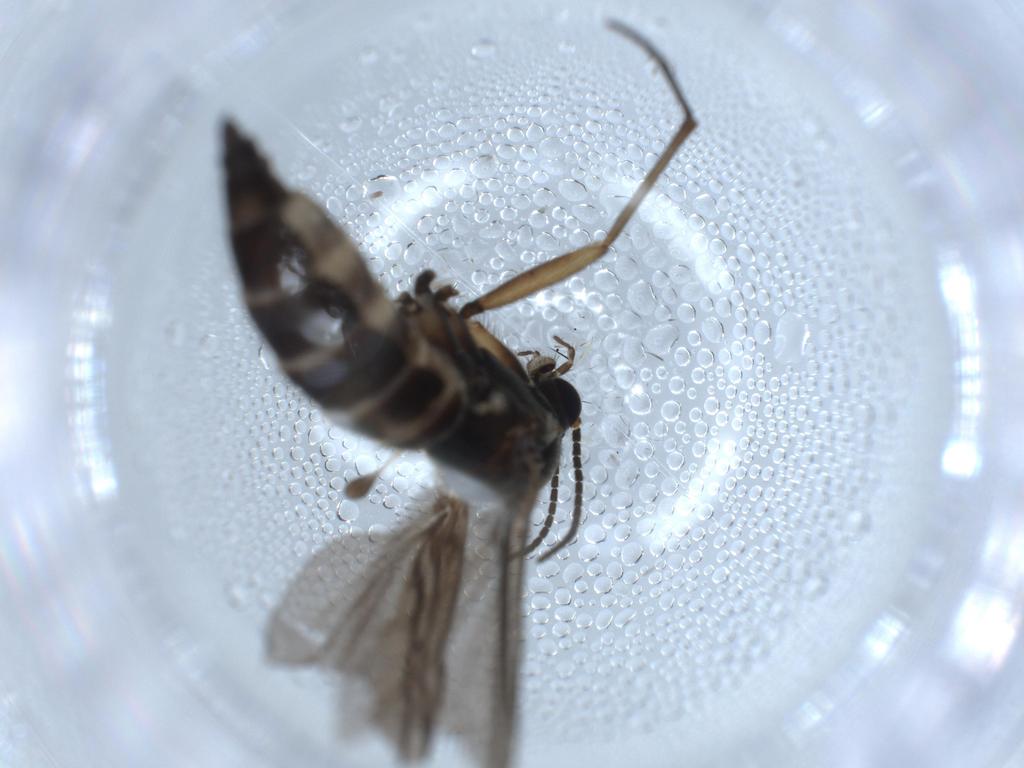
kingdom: Animalia
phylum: Arthropoda
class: Insecta
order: Diptera
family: Sciaridae
